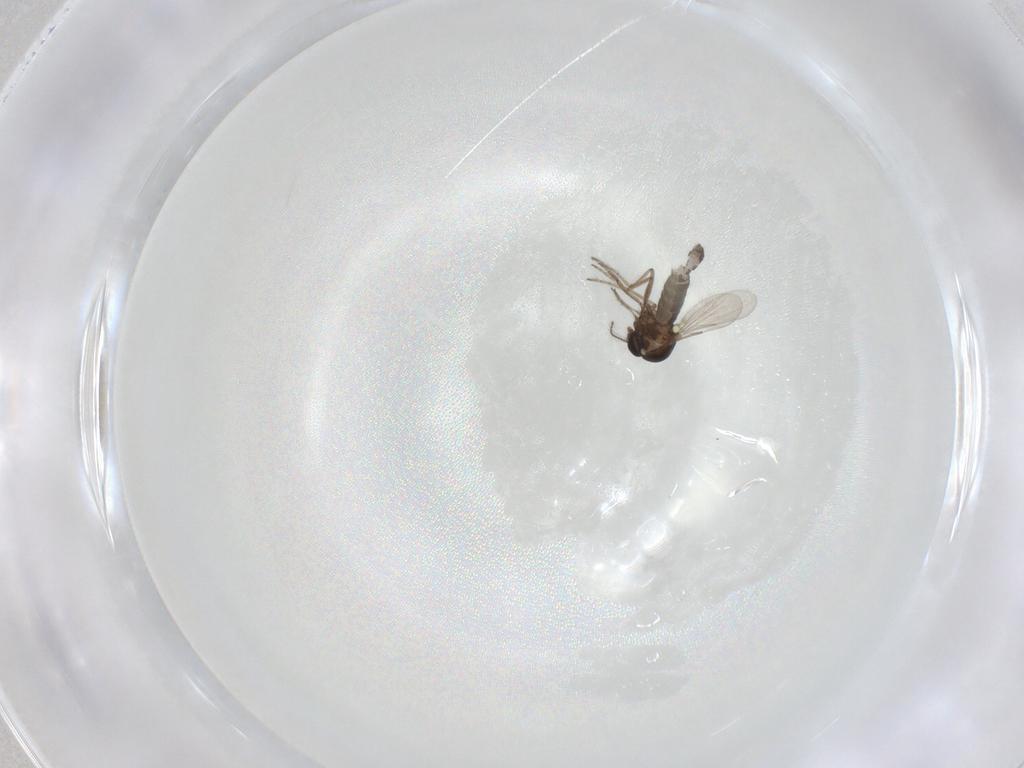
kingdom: Animalia
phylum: Arthropoda
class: Insecta
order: Diptera
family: Ceratopogonidae
